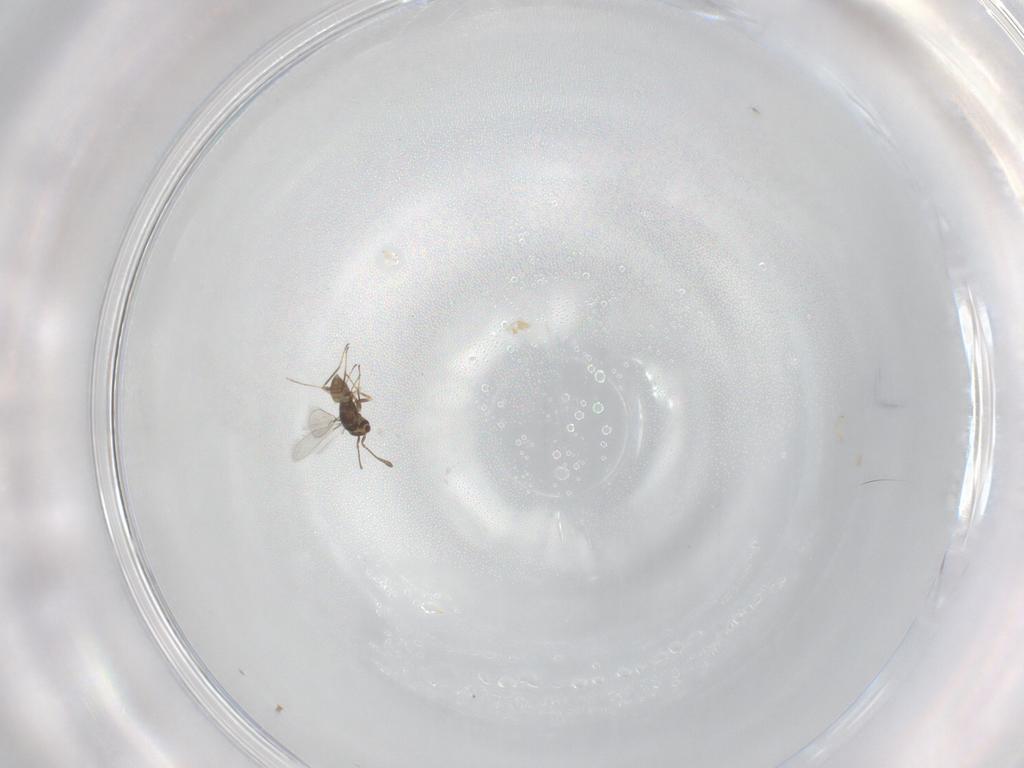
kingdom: Animalia
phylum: Arthropoda
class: Insecta
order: Hymenoptera
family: Mymaridae
